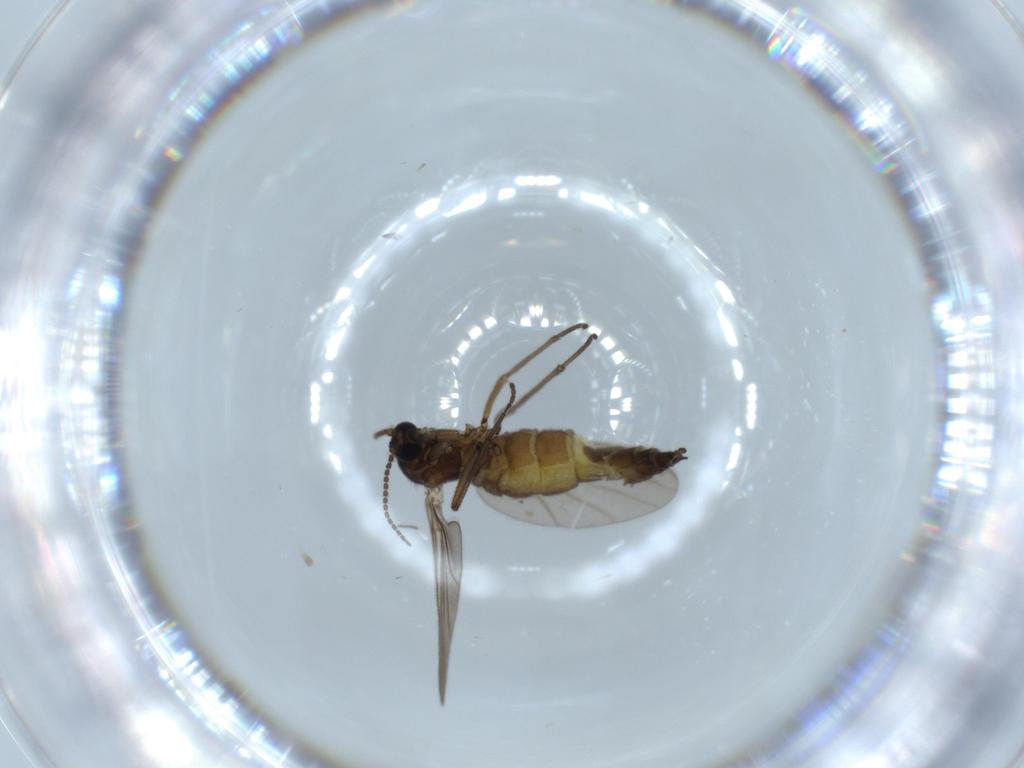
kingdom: Animalia
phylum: Arthropoda
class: Insecta
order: Diptera
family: Sciaridae
